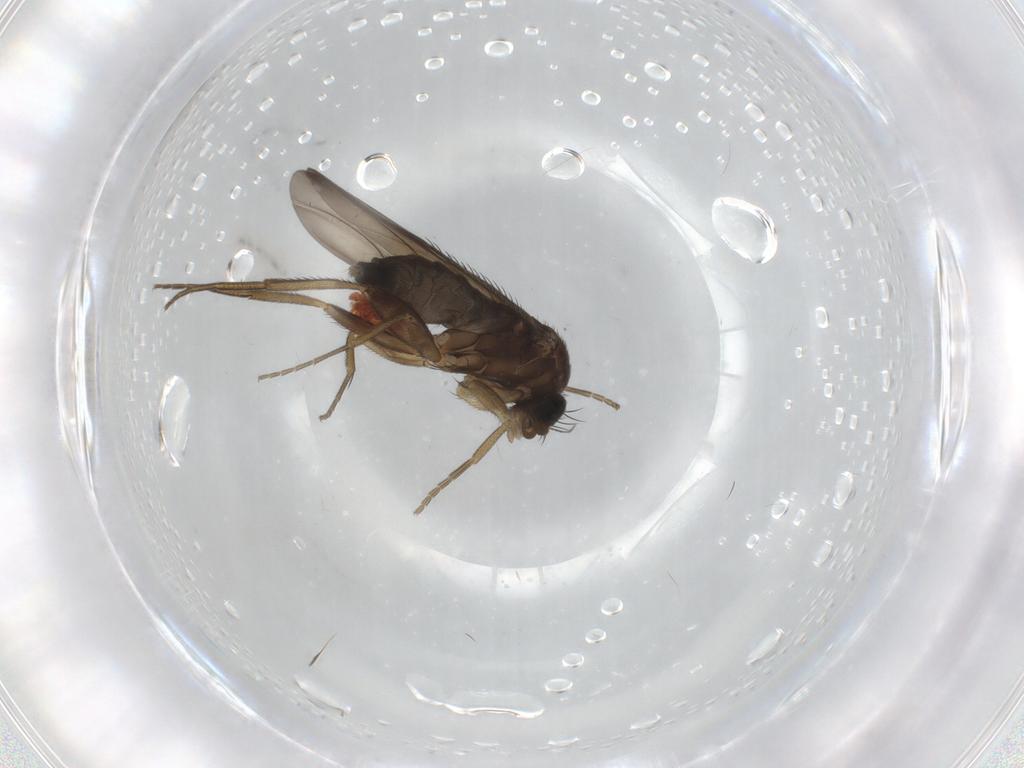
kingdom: Animalia
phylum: Arthropoda
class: Insecta
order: Diptera
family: Phoridae
